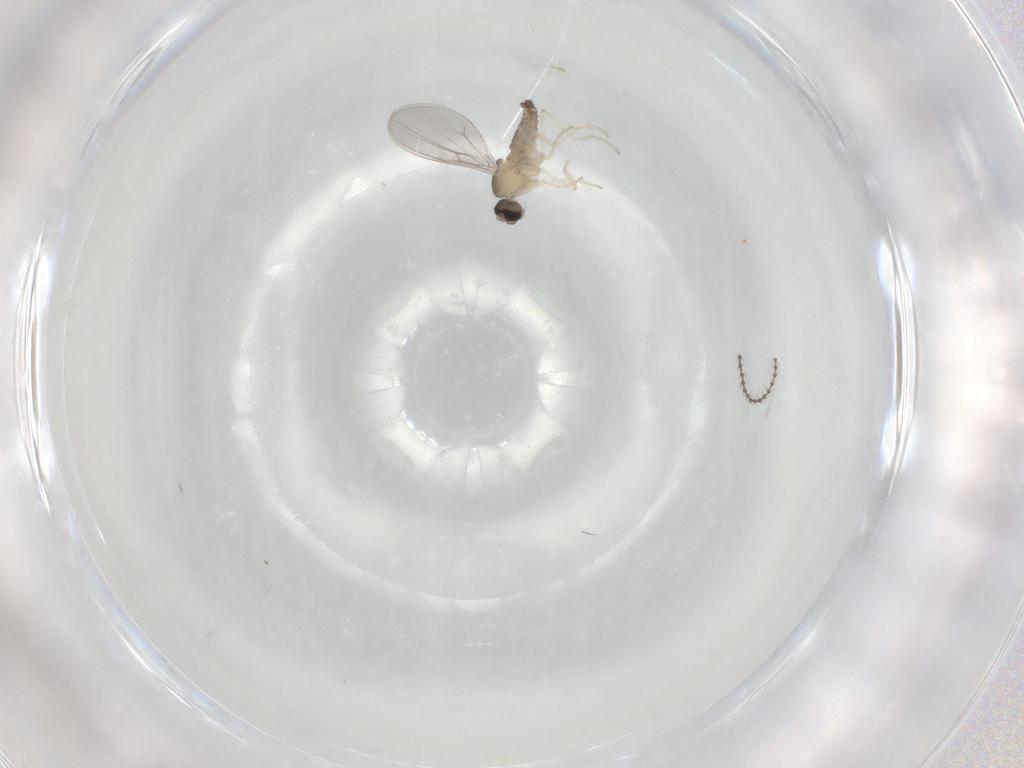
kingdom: Animalia
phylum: Arthropoda
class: Insecta
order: Diptera
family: Cecidomyiidae
